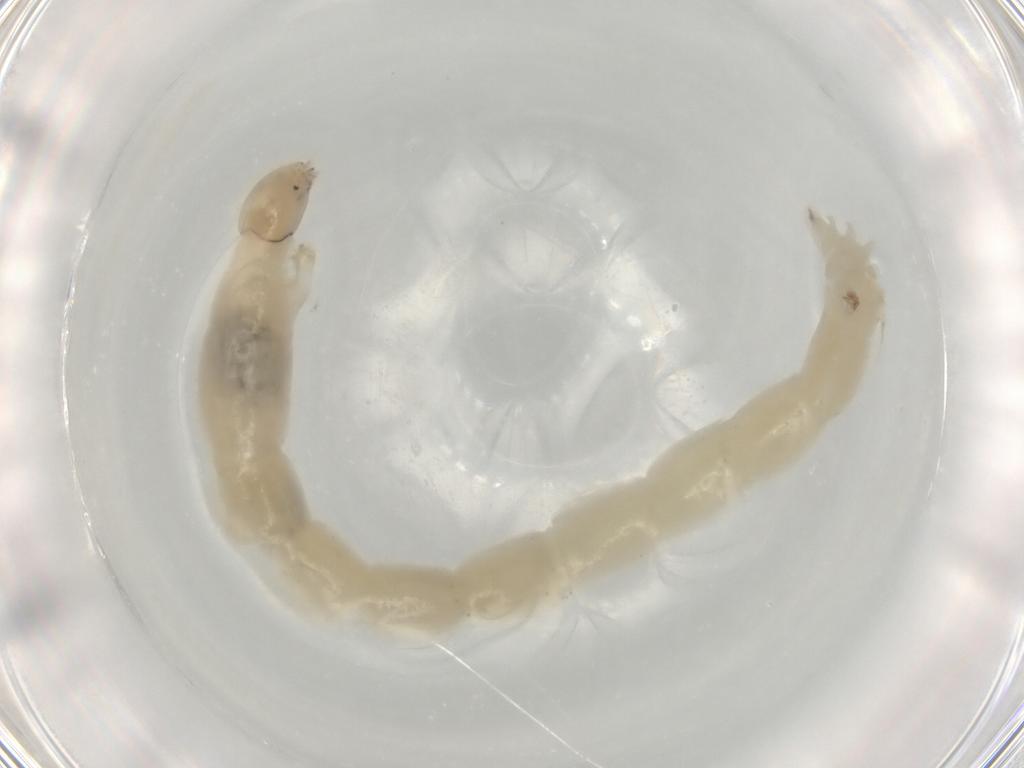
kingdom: Animalia
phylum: Arthropoda
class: Insecta
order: Diptera
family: Chironomidae
